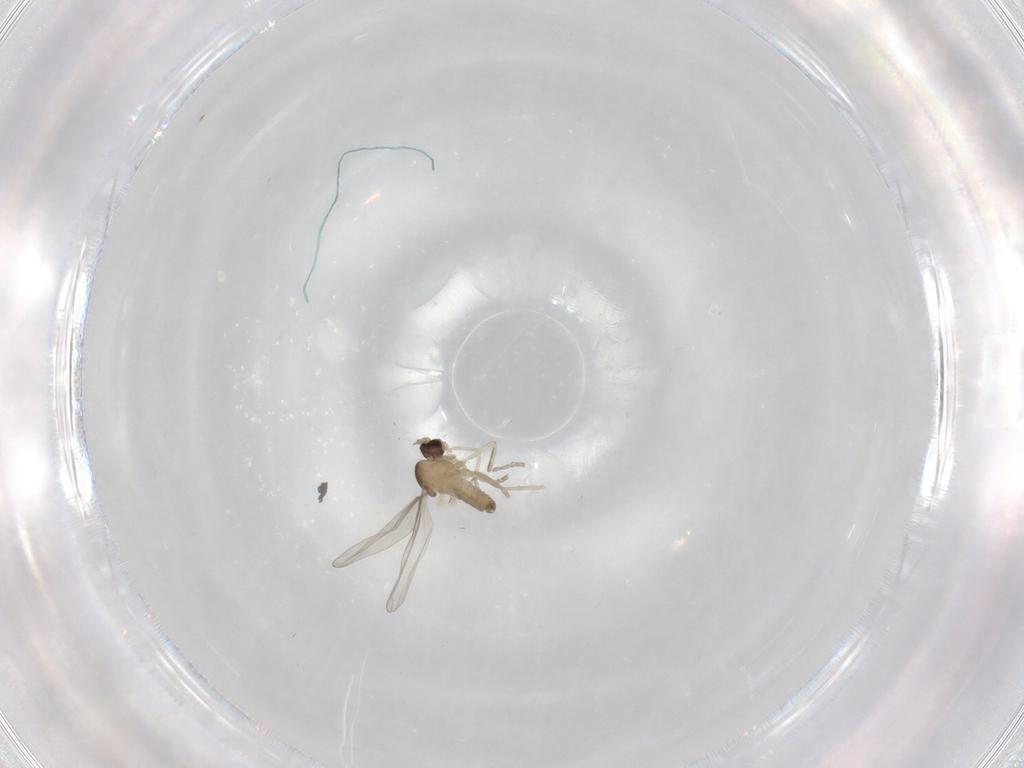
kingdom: Animalia
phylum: Arthropoda
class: Insecta
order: Diptera
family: Cecidomyiidae
